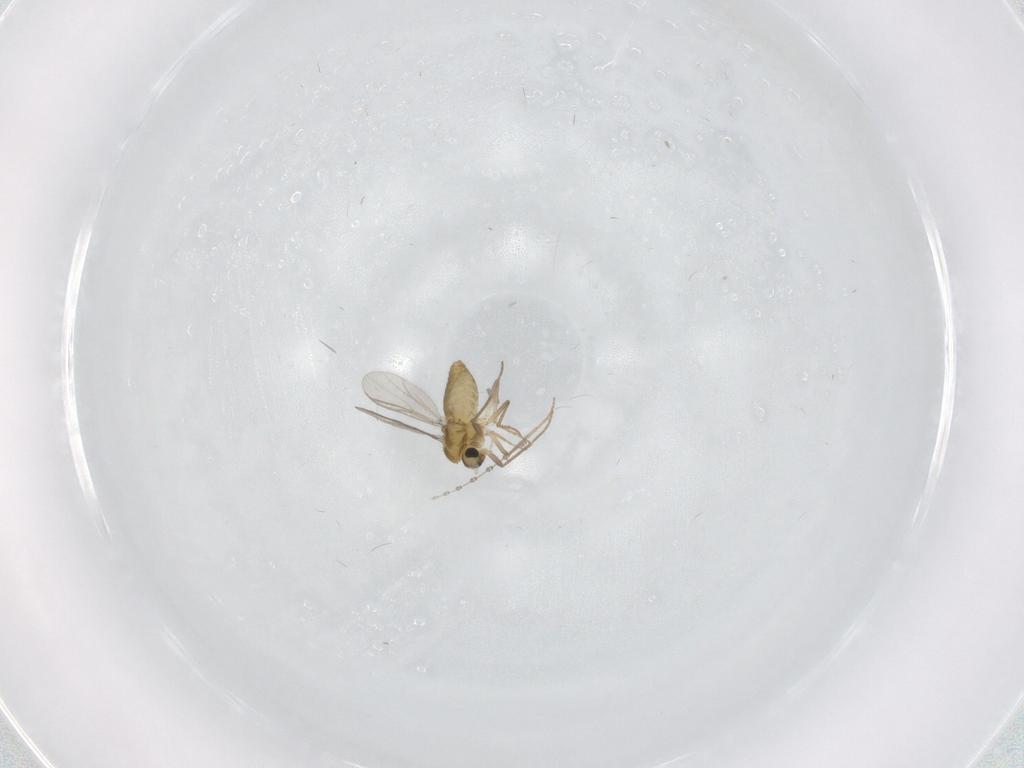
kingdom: Animalia
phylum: Arthropoda
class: Insecta
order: Diptera
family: Chironomidae
